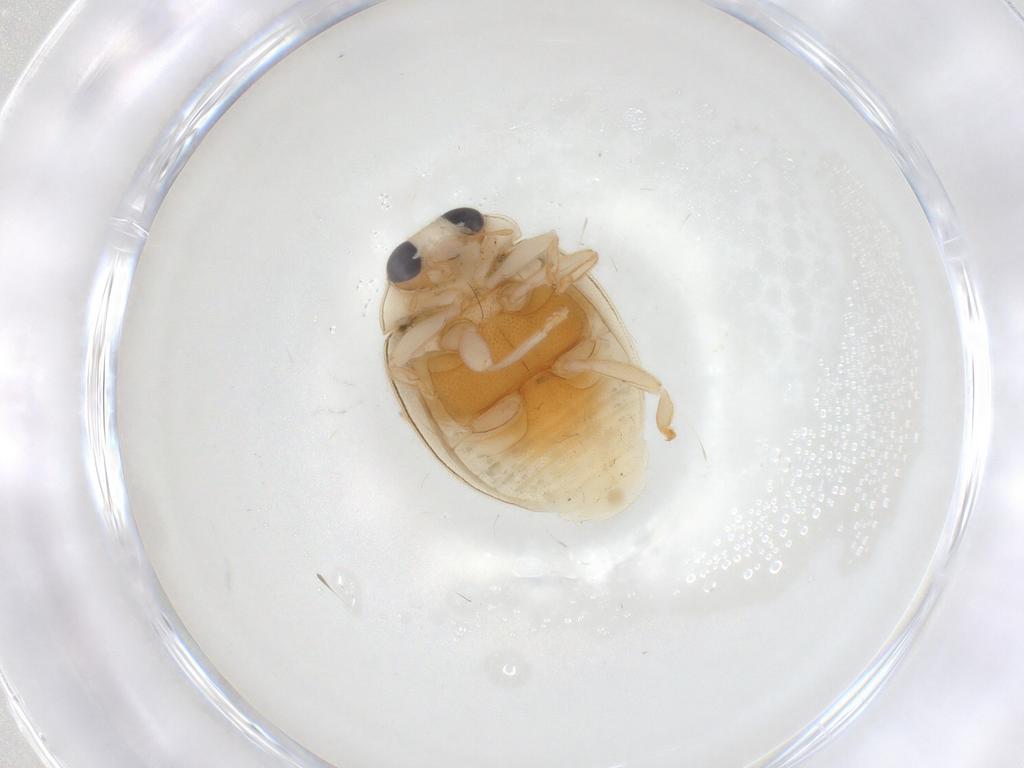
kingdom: Animalia
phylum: Arthropoda
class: Insecta
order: Coleoptera
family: Coccinellidae
